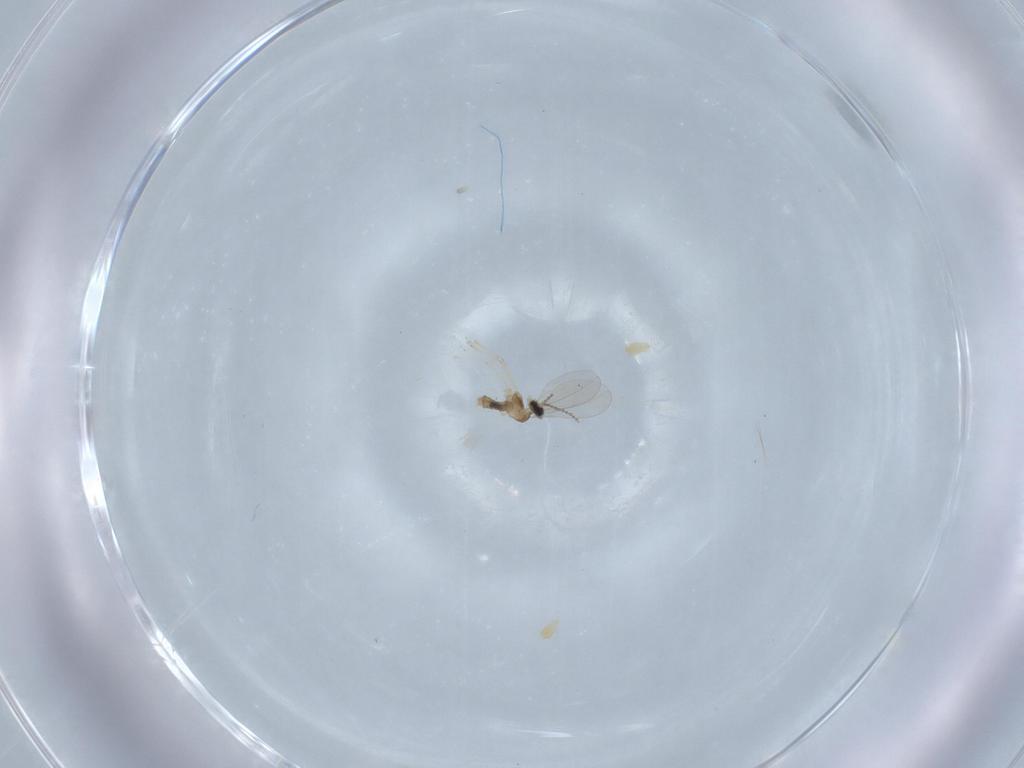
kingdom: Animalia
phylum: Arthropoda
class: Insecta
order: Diptera
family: Cecidomyiidae
